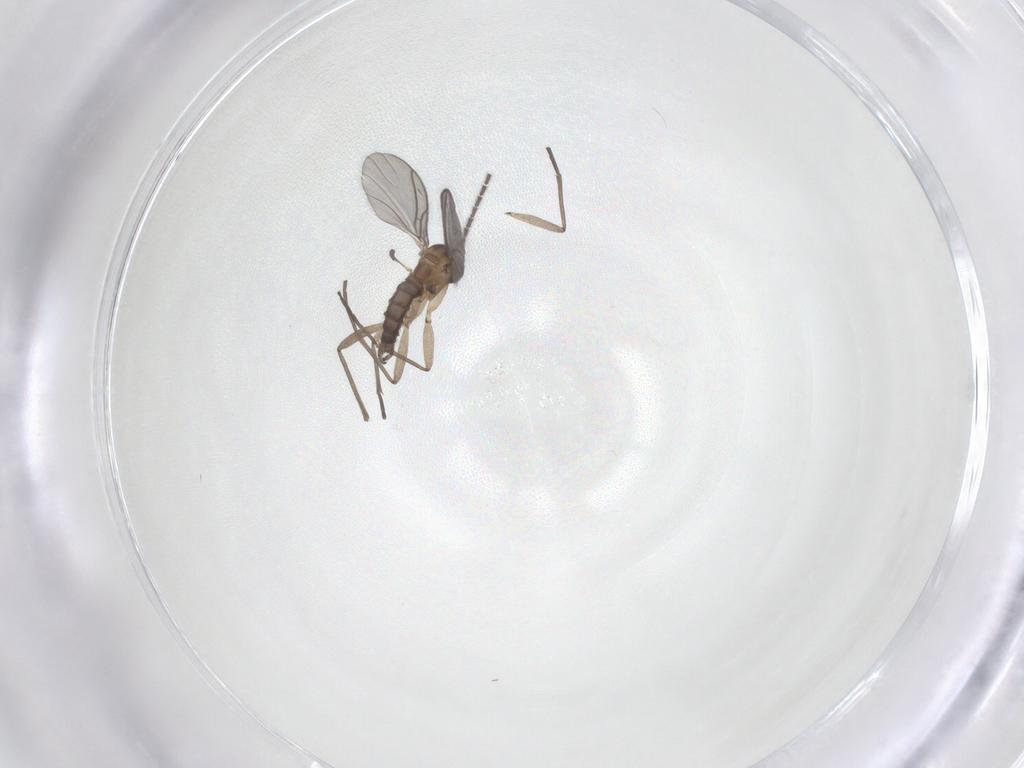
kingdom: Animalia
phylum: Arthropoda
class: Insecta
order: Diptera
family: Sciaridae
